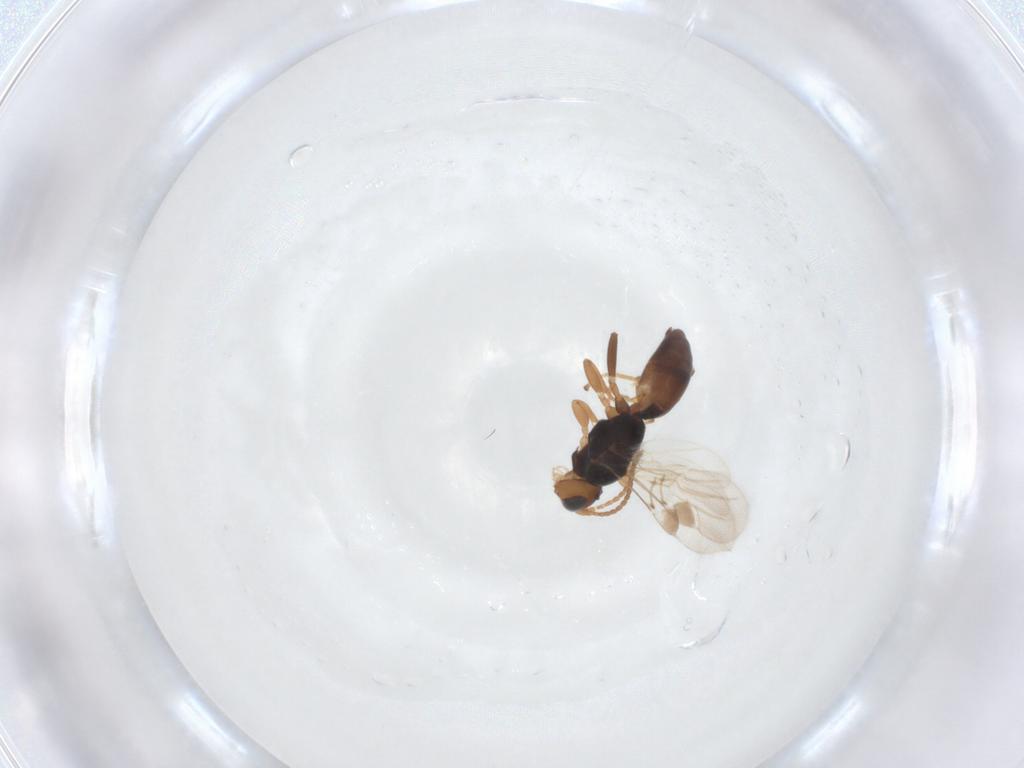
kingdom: Animalia
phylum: Arthropoda
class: Insecta
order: Hymenoptera
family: Braconidae
